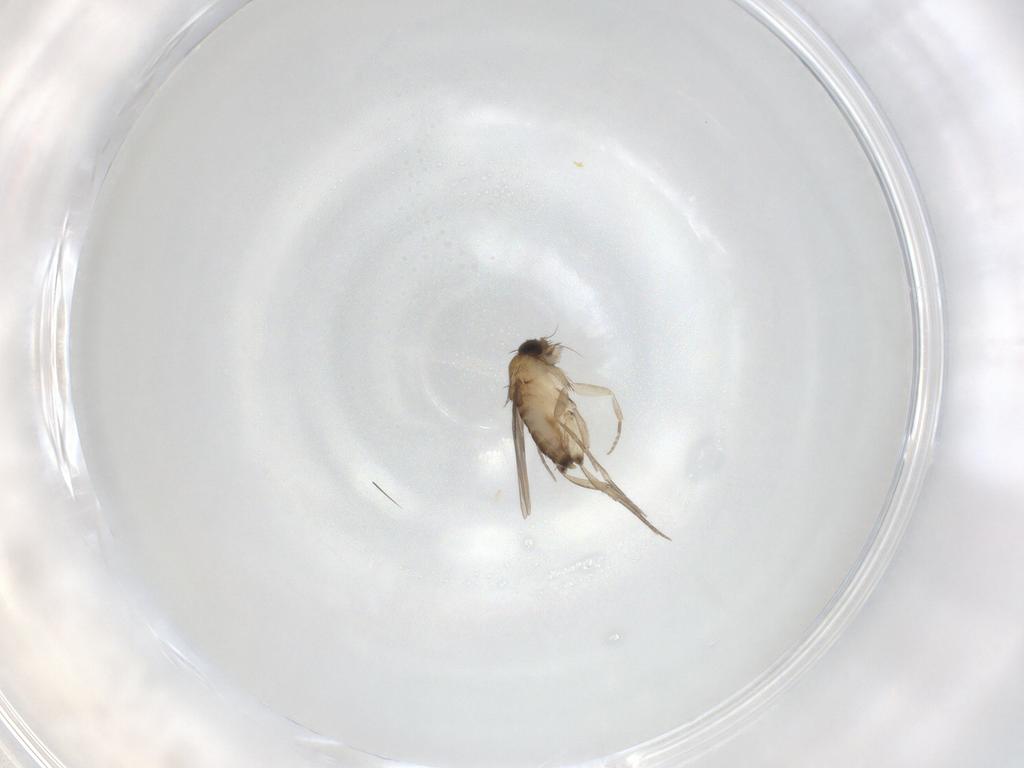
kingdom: Animalia
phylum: Arthropoda
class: Insecta
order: Diptera
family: Phoridae
